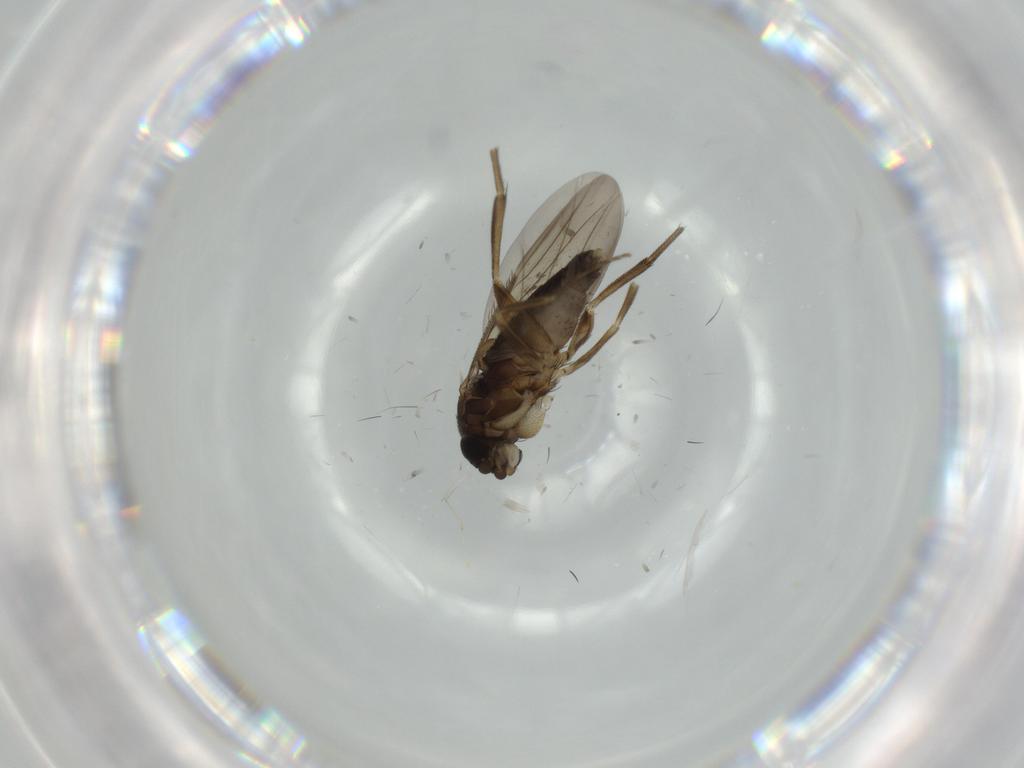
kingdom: Animalia
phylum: Arthropoda
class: Insecta
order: Diptera
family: Phoridae
